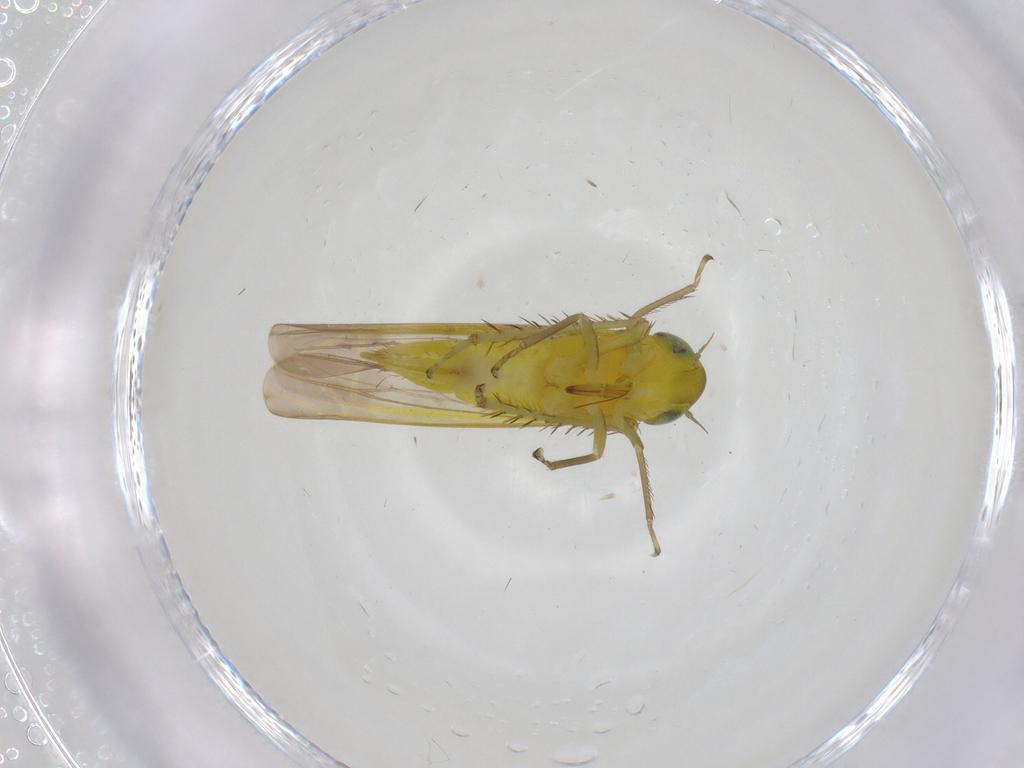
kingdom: Animalia
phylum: Arthropoda
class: Insecta
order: Hemiptera
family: Cicadellidae
